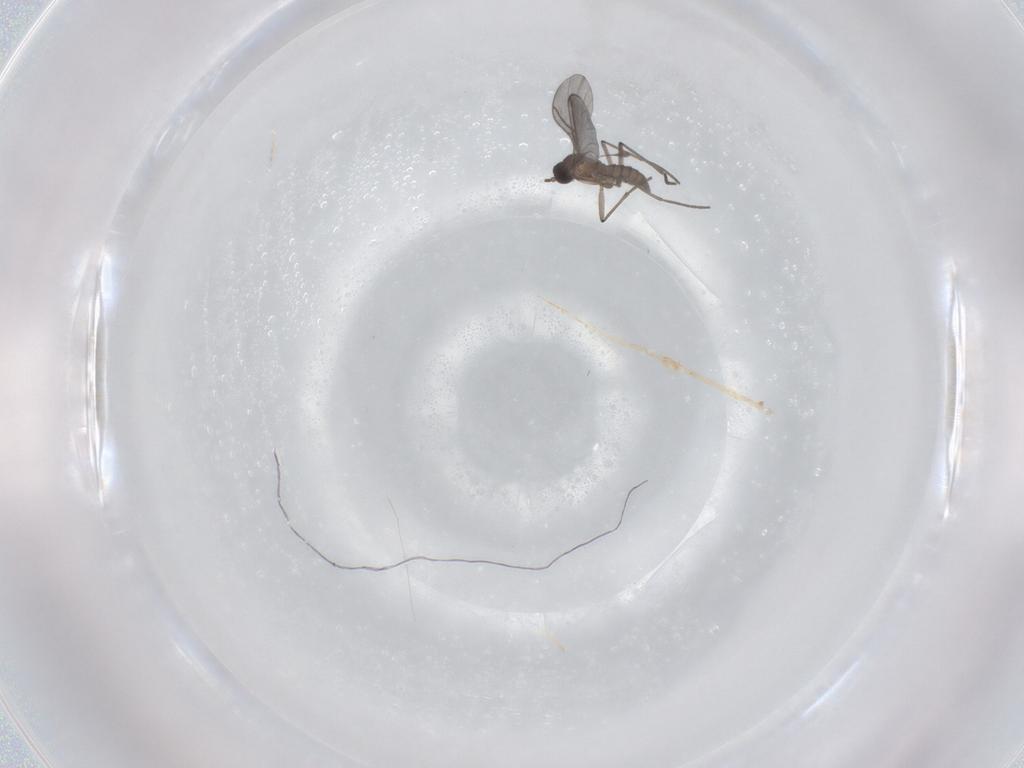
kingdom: Animalia
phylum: Arthropoda
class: Insecta
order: Diptera
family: Sciaridae
